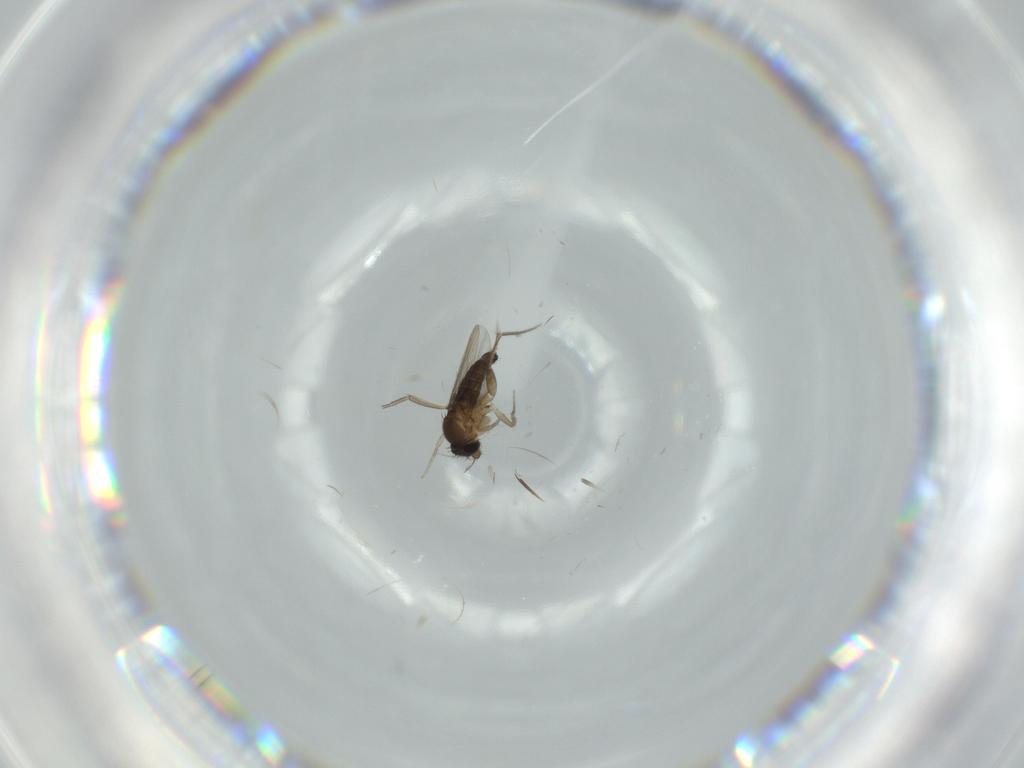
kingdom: Animalia
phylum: Arthropoda
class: Insecta
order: Diptera
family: Phoridae
